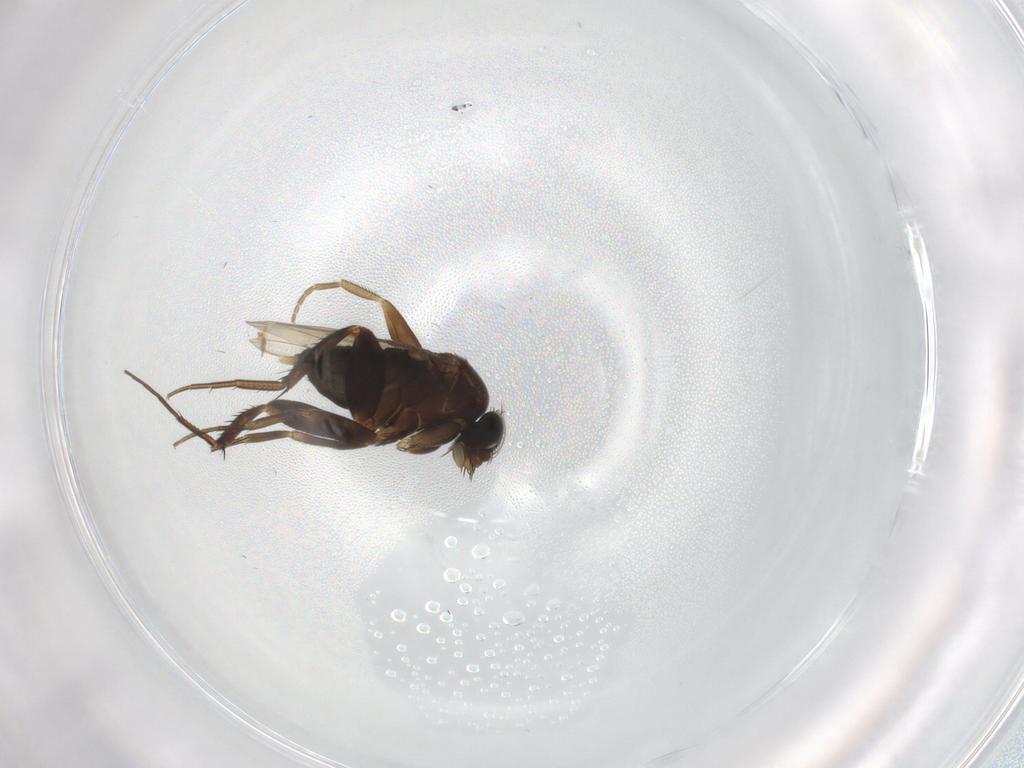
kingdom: Animalia
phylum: Arthropoda
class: Insecta
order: Diptera
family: Phoridae
